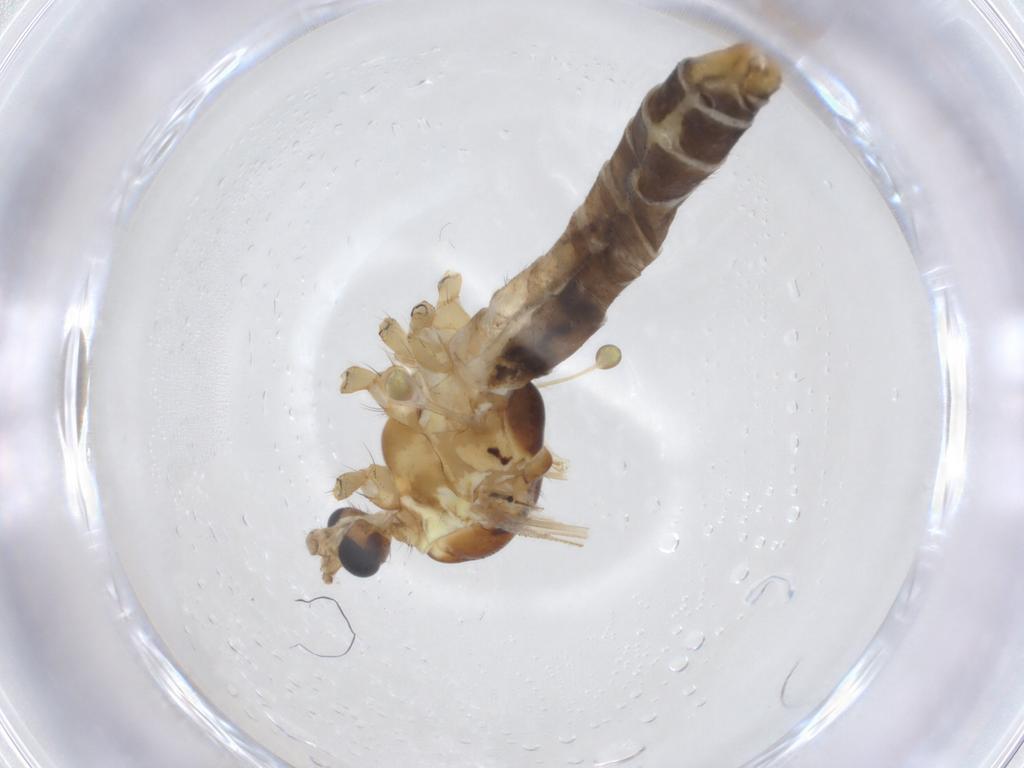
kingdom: Animalia
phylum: Arthropoda
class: Insecta
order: Diptera
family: Limoniidae
